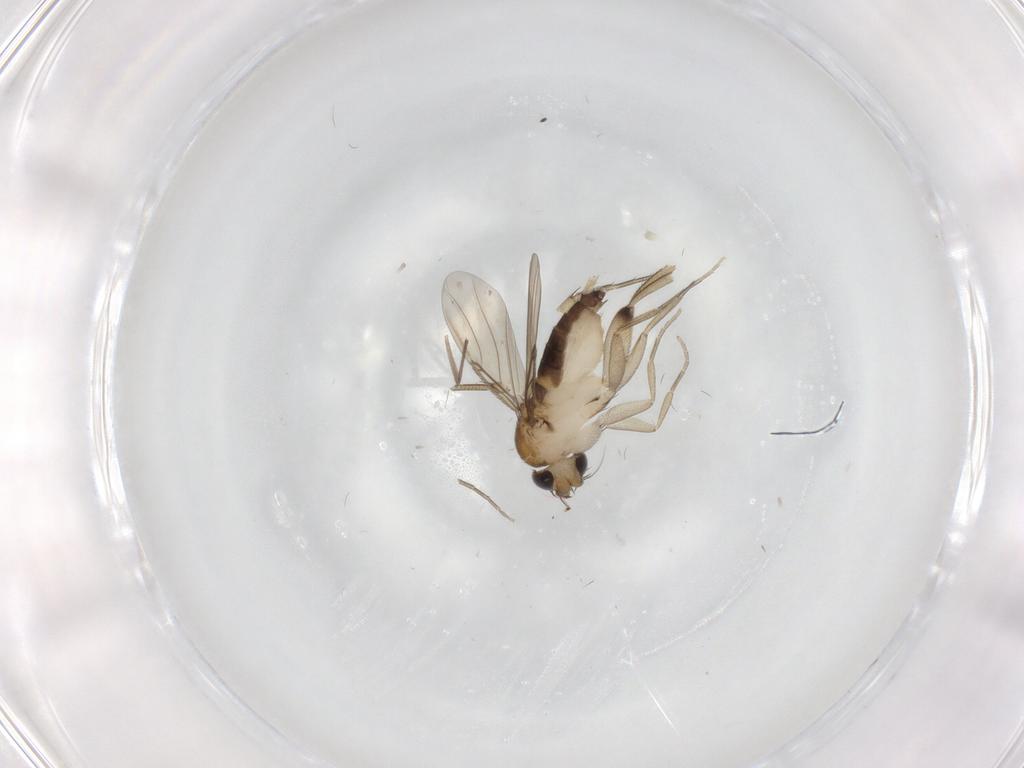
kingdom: Animalia
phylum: Arthropoda
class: Insecta
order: Diptera
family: Phoridae
